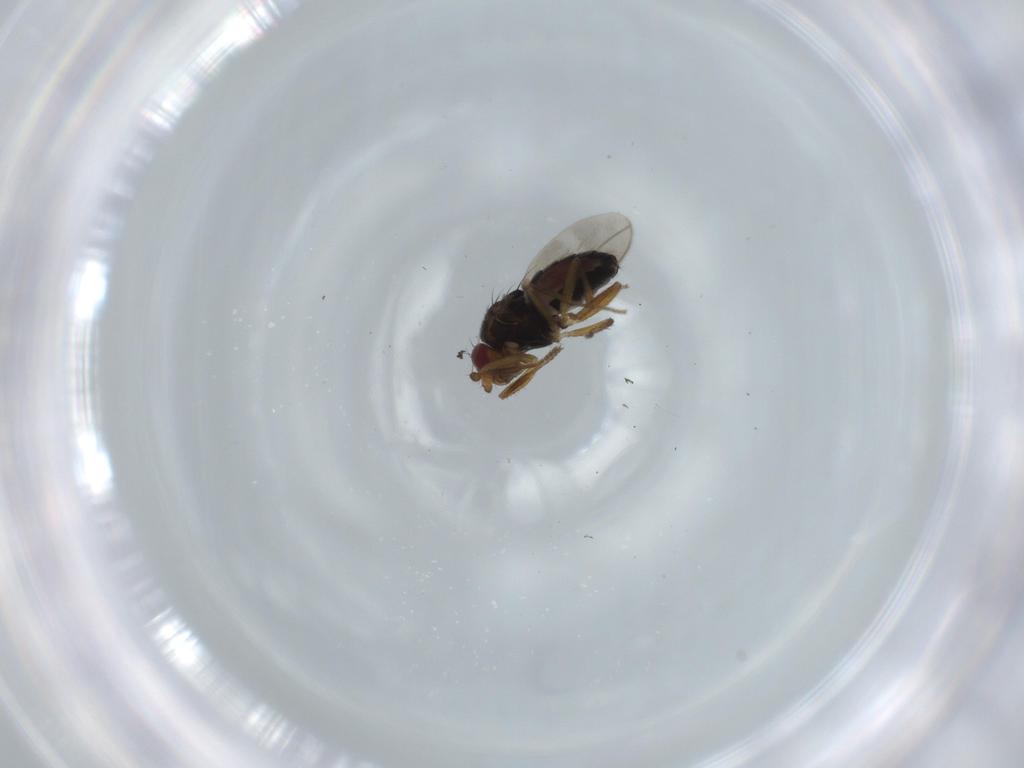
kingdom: Animalia
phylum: Arthropoda
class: Insecta
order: Diptera
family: Sphaeroceridae
